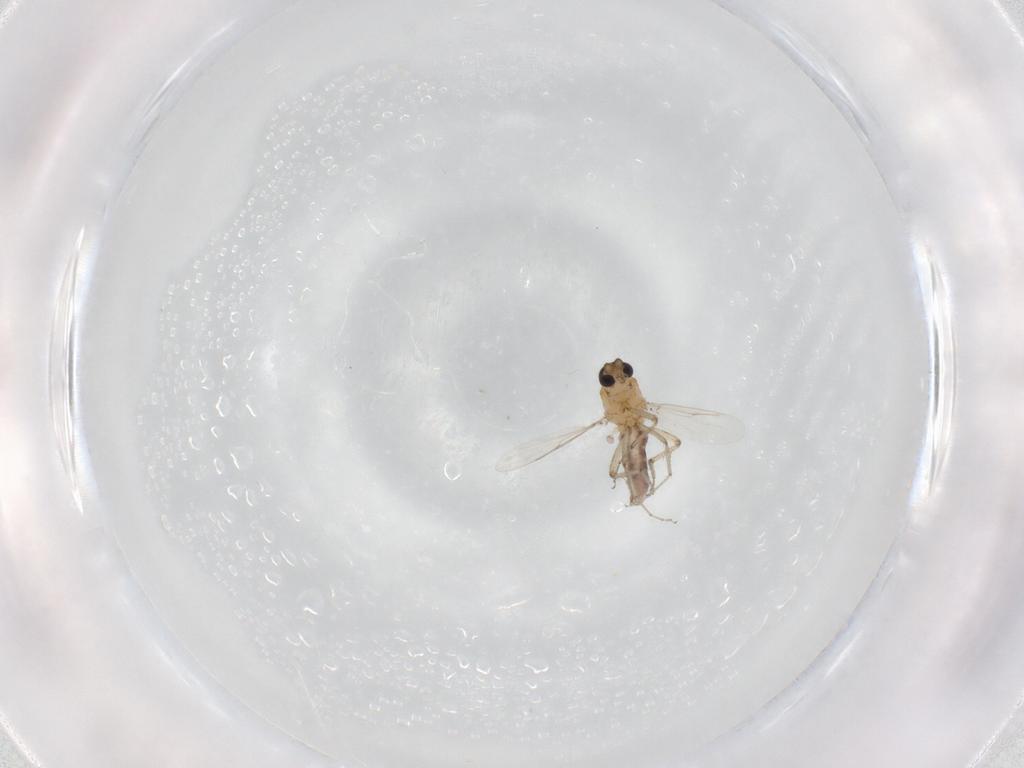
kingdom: Animalia
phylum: Arthropoda
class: Insecta
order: Diptera
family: Ceratopogonidae
